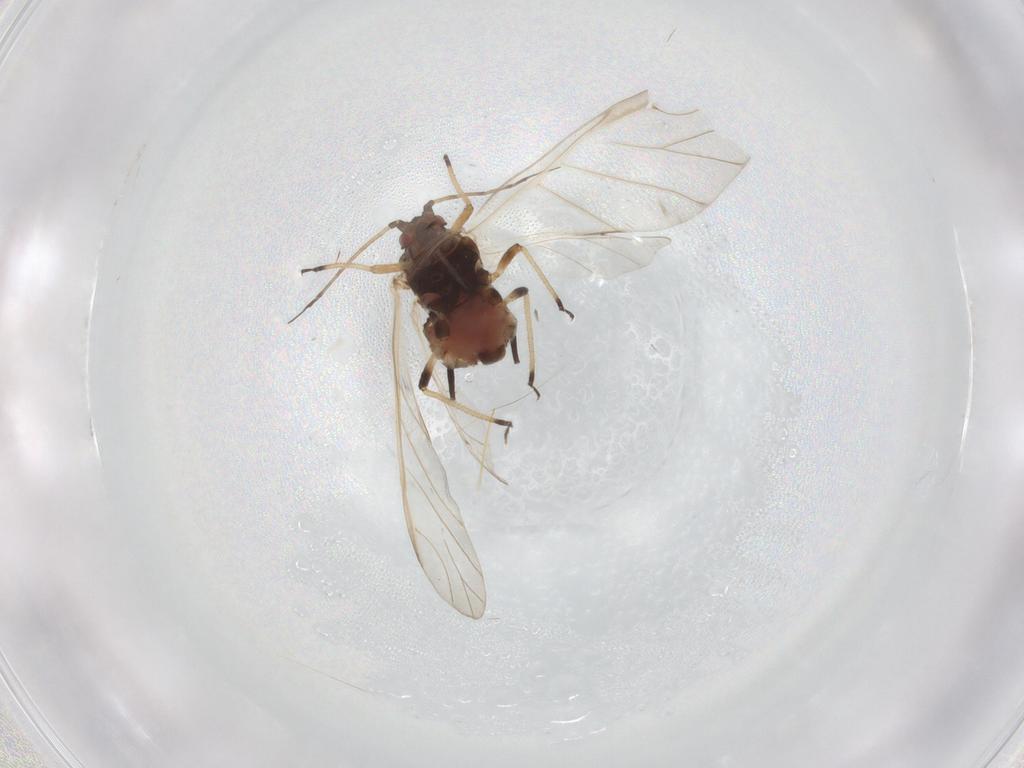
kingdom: Animalia
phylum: Arthropoda
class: Insecta
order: Hemiptera
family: Aphididae
